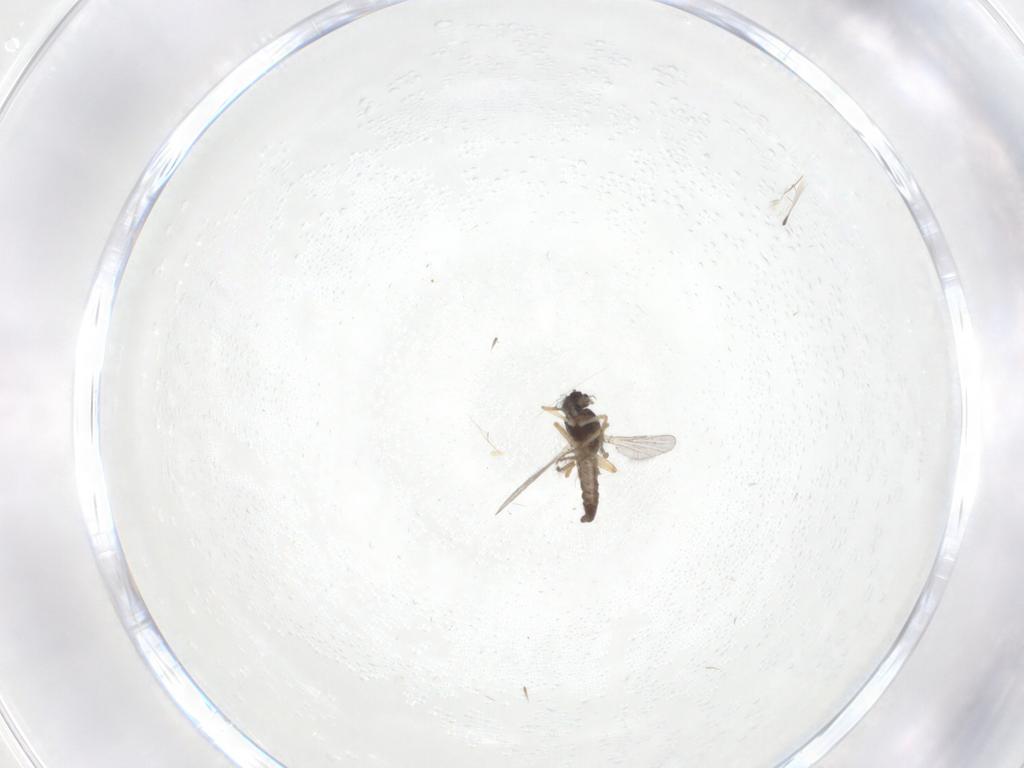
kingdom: Animalia
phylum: Arthropoda
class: Insecta
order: Diptera
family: Ceratopogonidae
